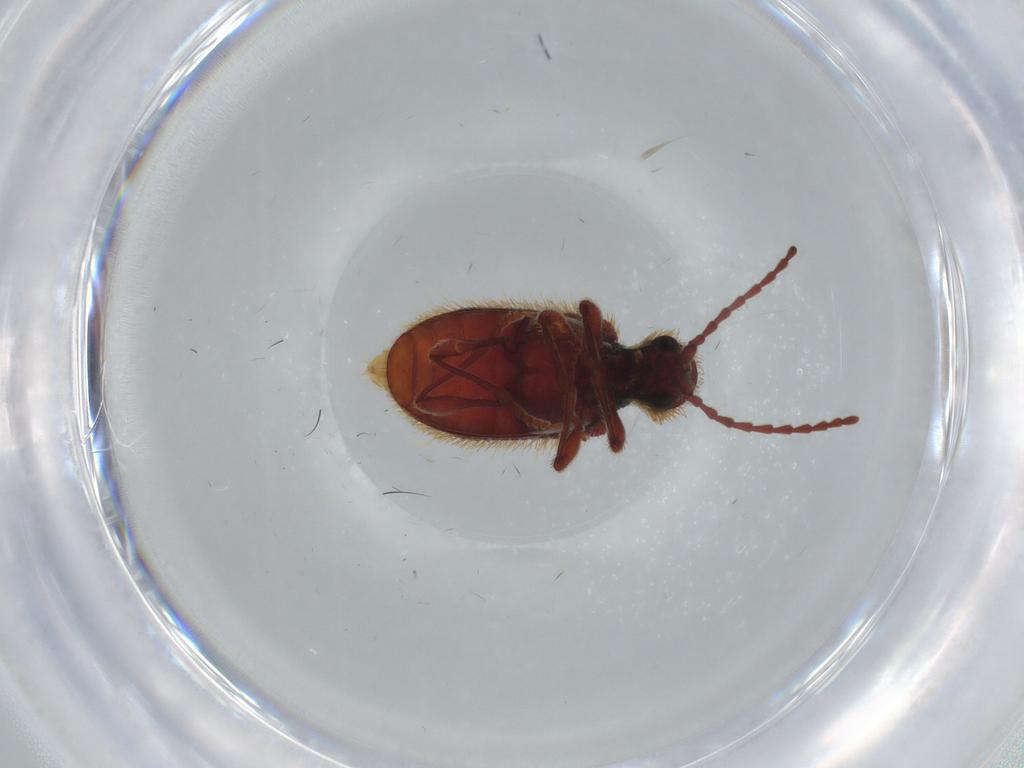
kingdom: Animalia
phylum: Arthropoda
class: Insecta
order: Coleoptera
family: Ptinidae
